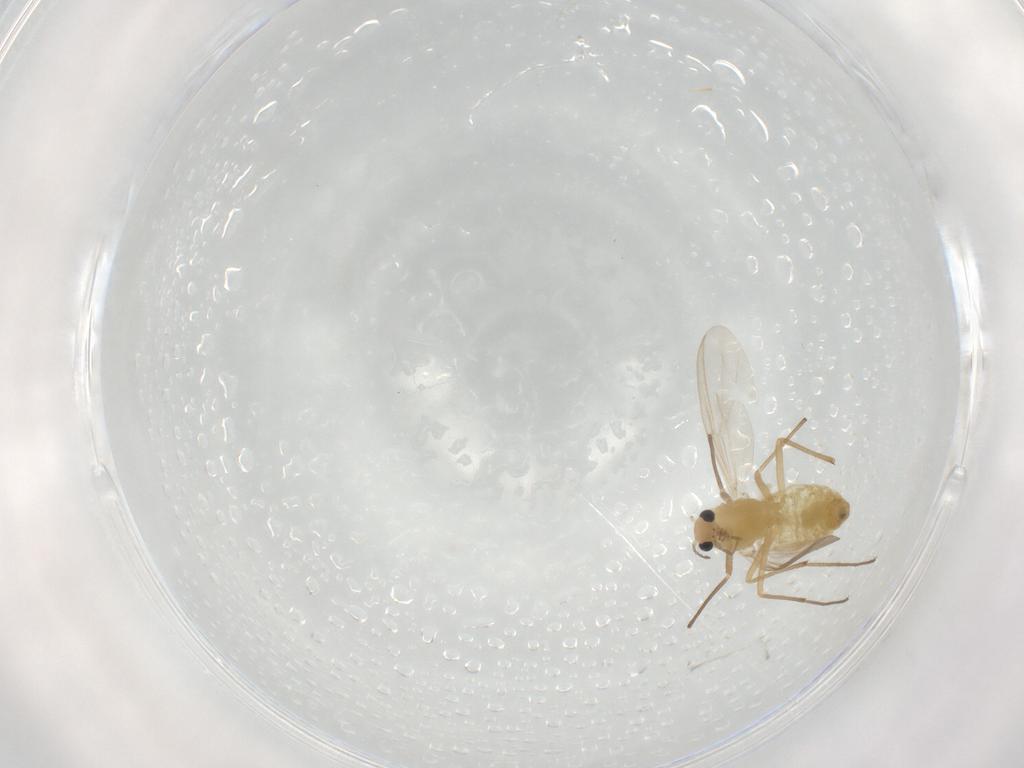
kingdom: Animalia
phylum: Arthropoda
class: Insecta
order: Diptera
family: Chironomidae
